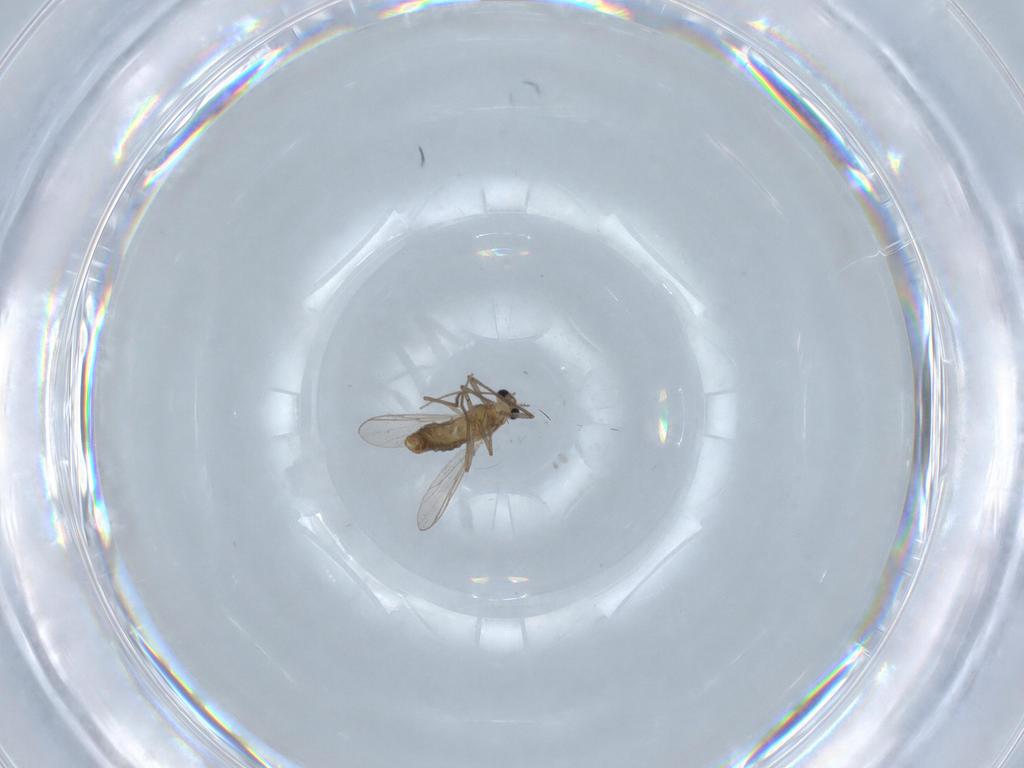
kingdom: Animalia
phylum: Arthropoda
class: Insecta
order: Diptera
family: Chironomidae
